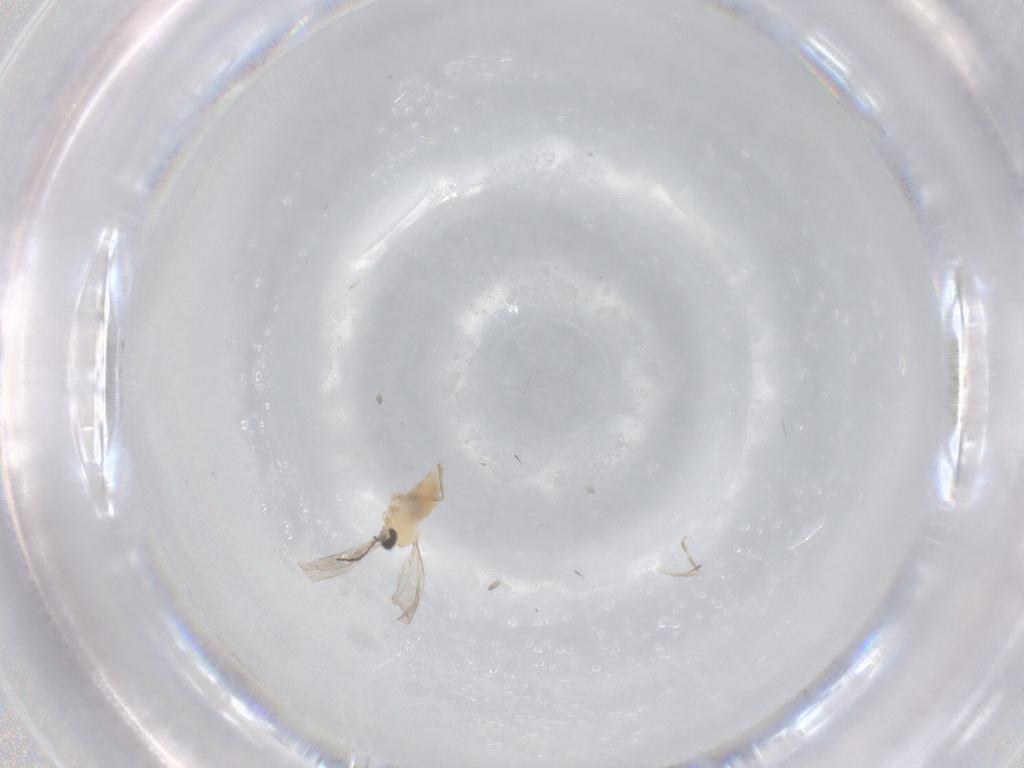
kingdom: Animalia
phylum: Arthropoda
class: Insecta
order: Diptera
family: Cecidomyiidae
